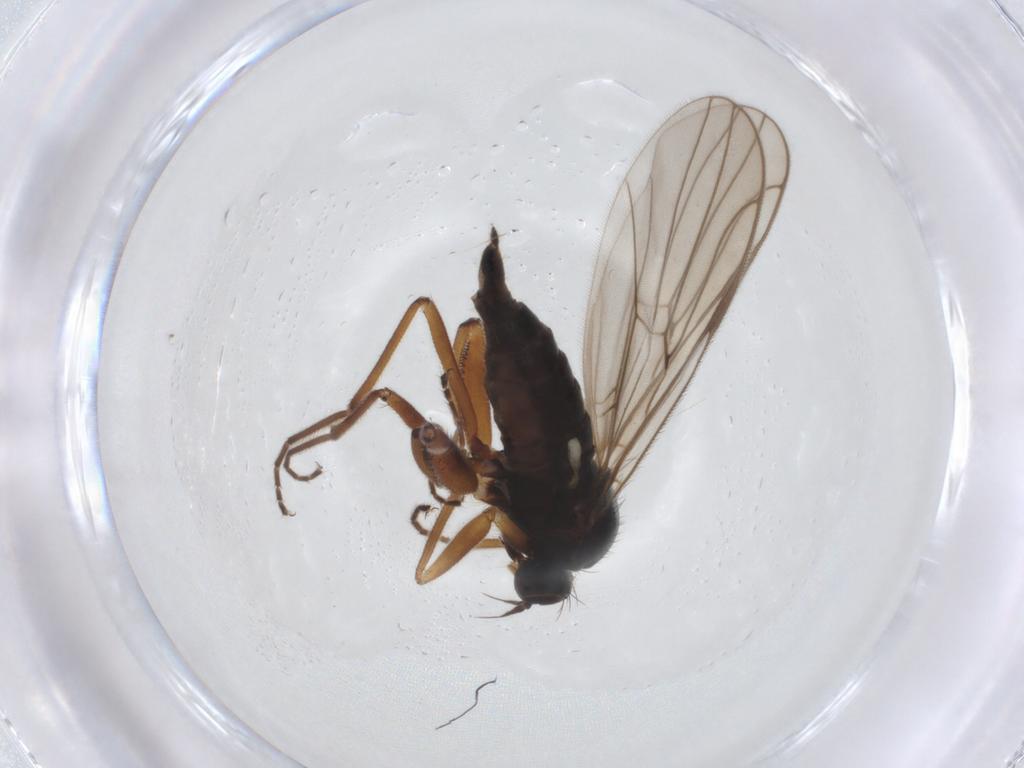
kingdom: Animalia
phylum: Arthropoda
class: Insecta
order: Diptera
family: Hybotidae
